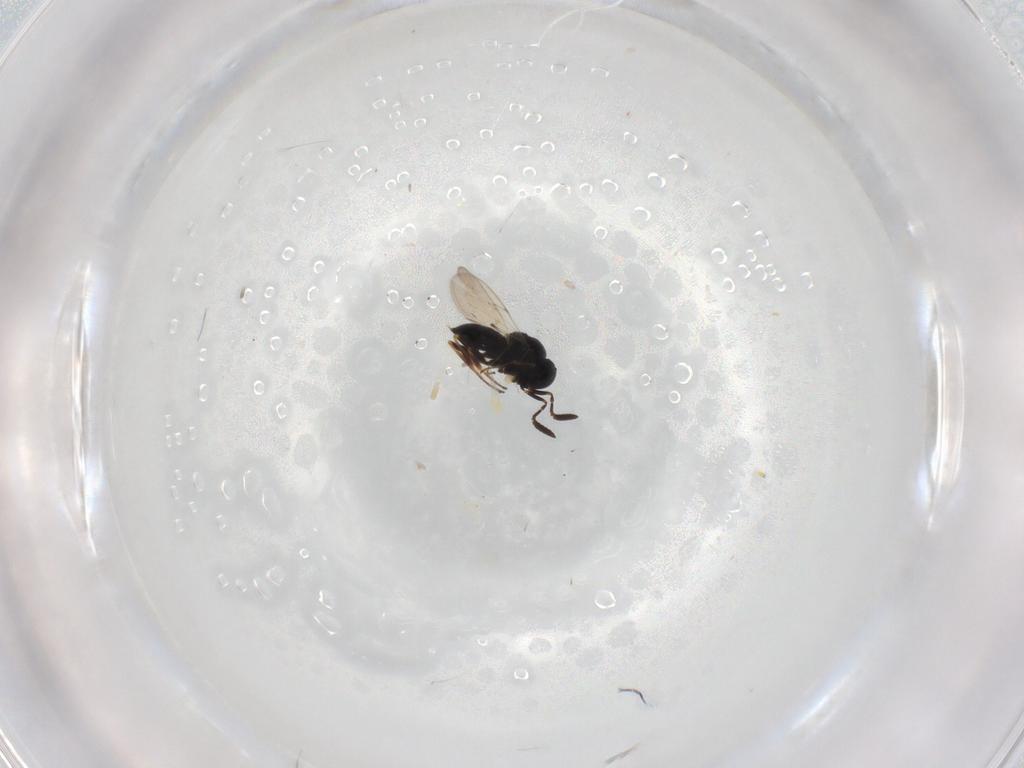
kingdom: Animalia
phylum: Arthropoda
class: Insecta
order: Hymenoptera
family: Scelionidae
